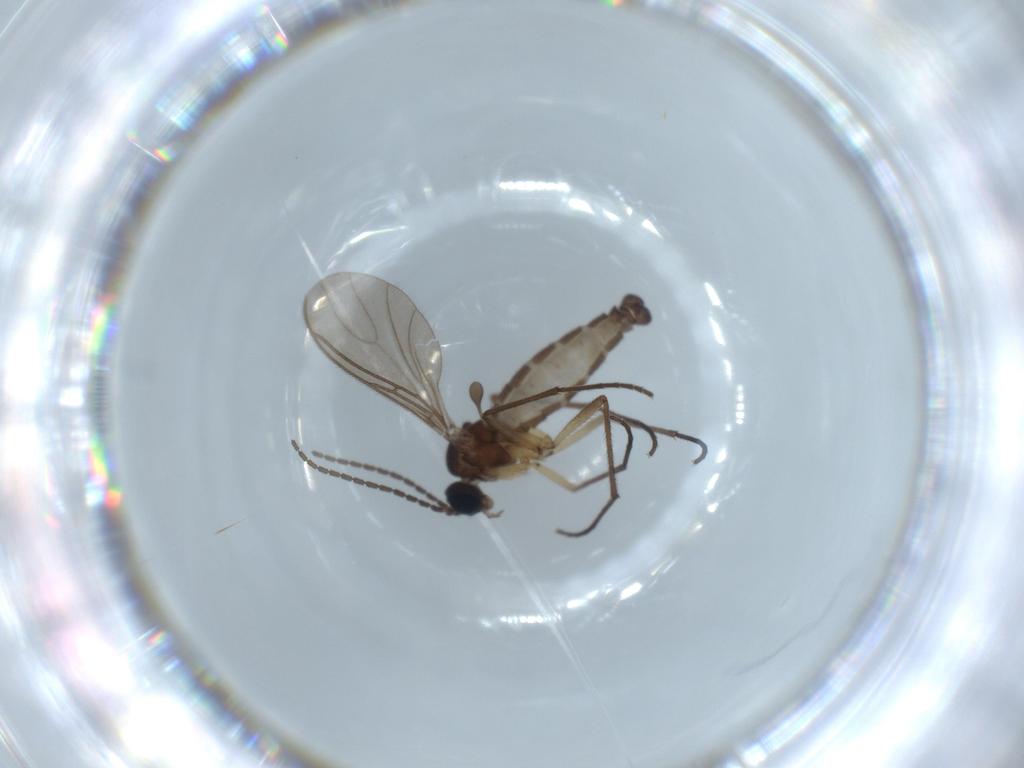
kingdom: Animalia
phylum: Arthropoda
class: Insecta
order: Diptera
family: Sciaridae
